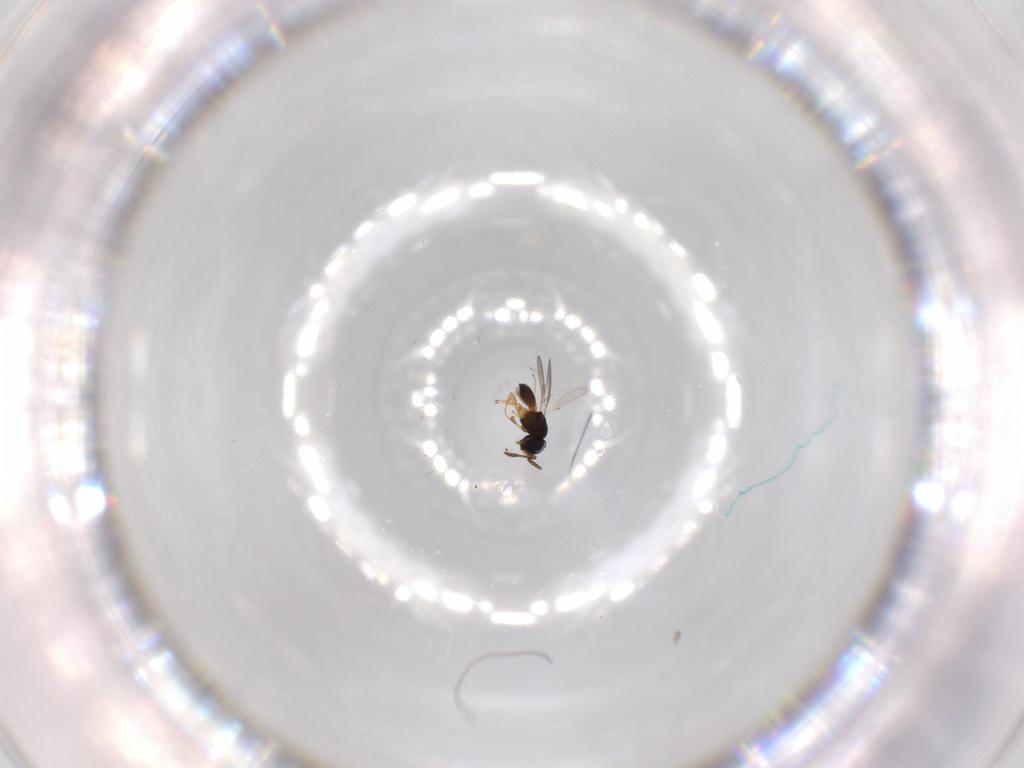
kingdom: Animalia
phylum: Arthropoda
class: Insecta
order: Hymenoptera
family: Scelionidae
